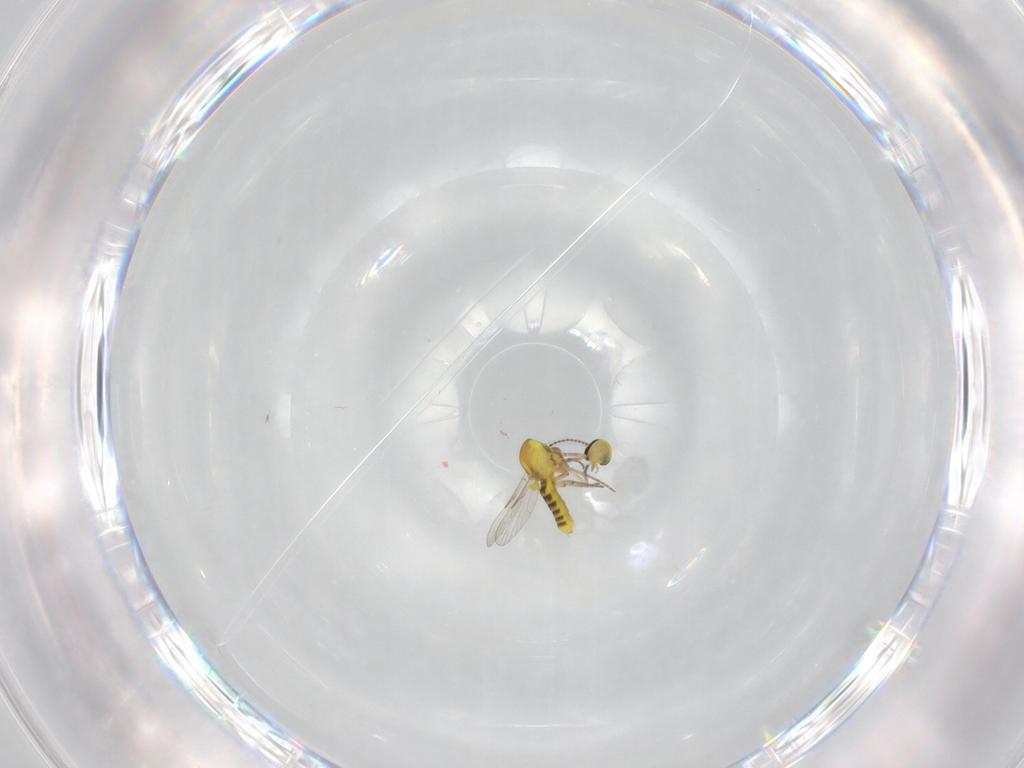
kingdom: Animalia
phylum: Arthropoda
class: Insecta
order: Diptera
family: Ceratopogonidae
